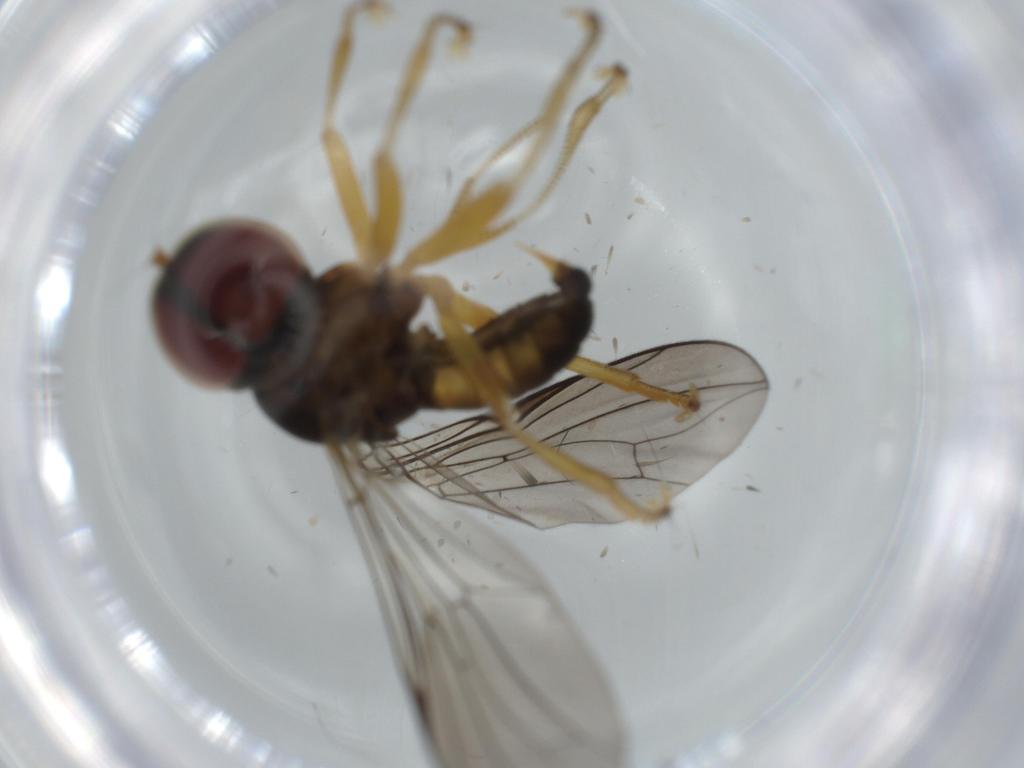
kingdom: Animalia
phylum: Arthropoda
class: Insecta
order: Diptera
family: Pipunculidae
